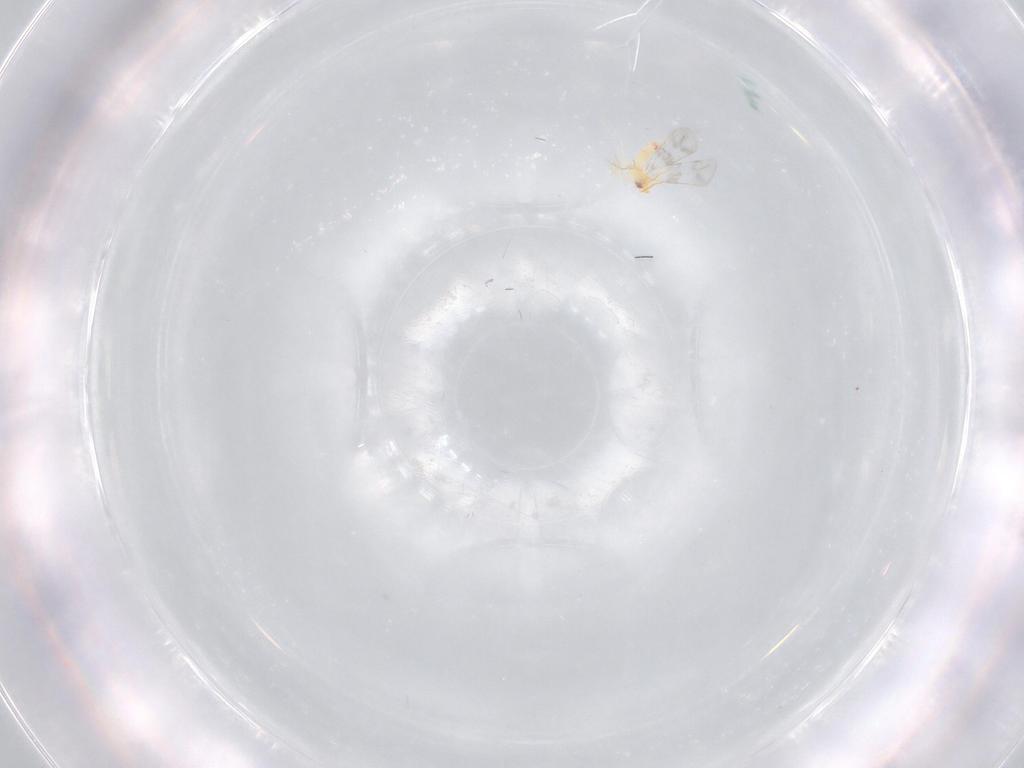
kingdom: Animalia
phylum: Arthropoda
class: Insecta
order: Hemiptera
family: Aleyrodidae
